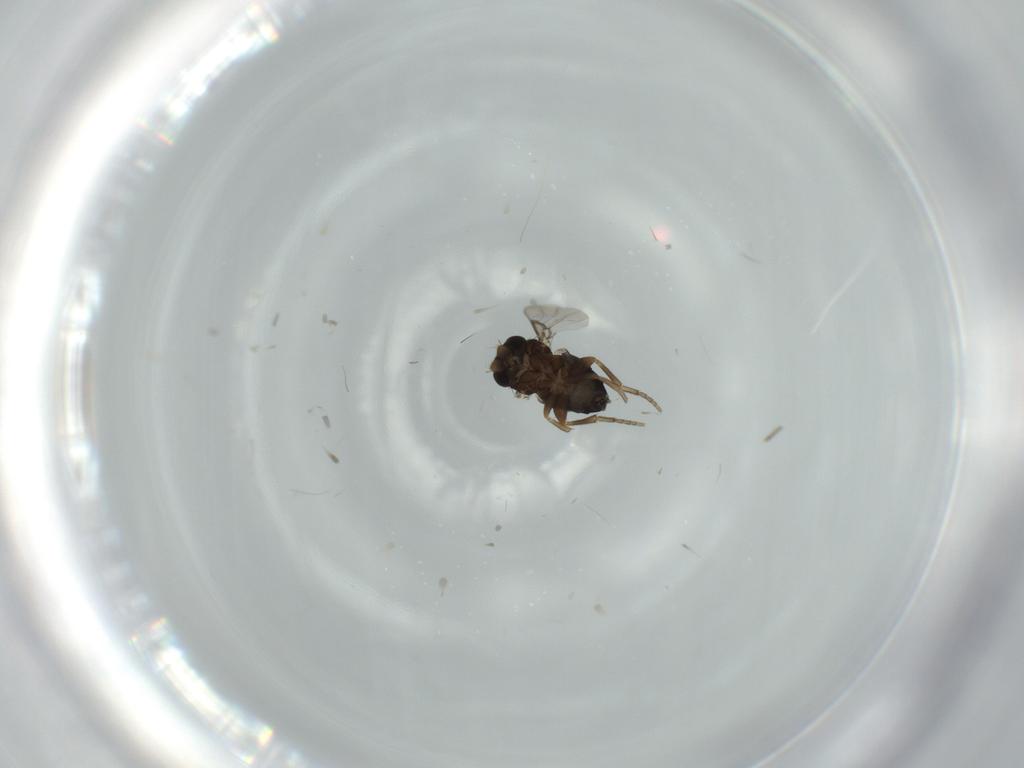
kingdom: Animalia
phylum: Arthropoda
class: Insecta
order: Diptera
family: Phoridae
